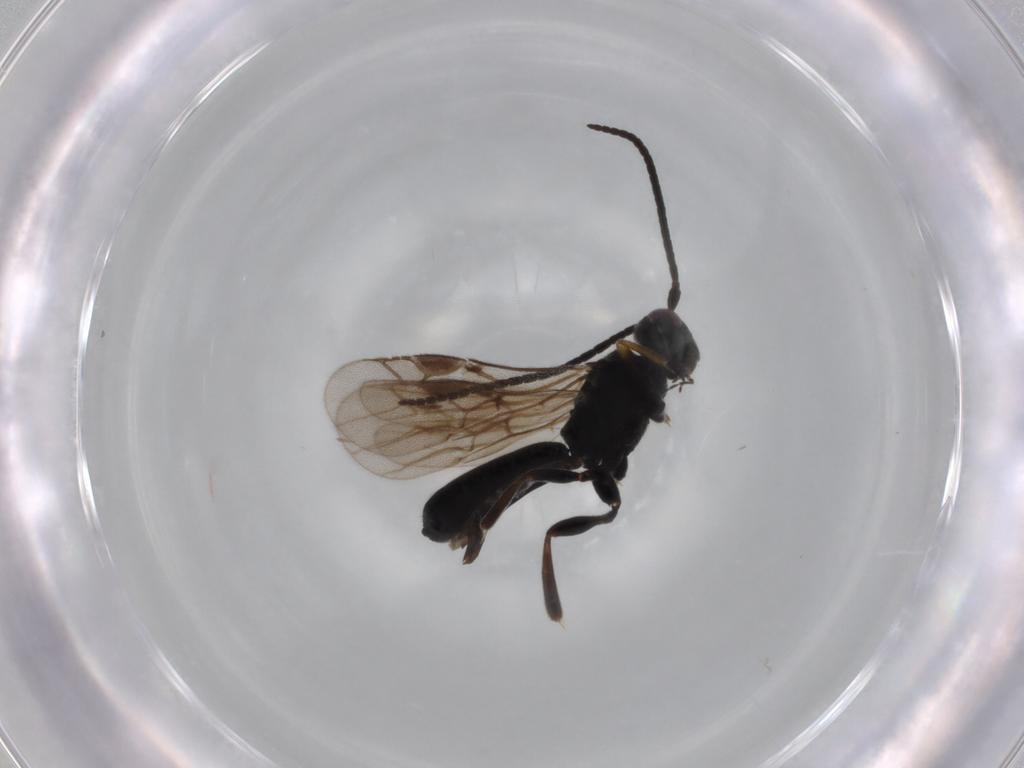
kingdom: Animalia
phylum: Arthropoda
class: Insecta
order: Hymenoptera
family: Braconidae
